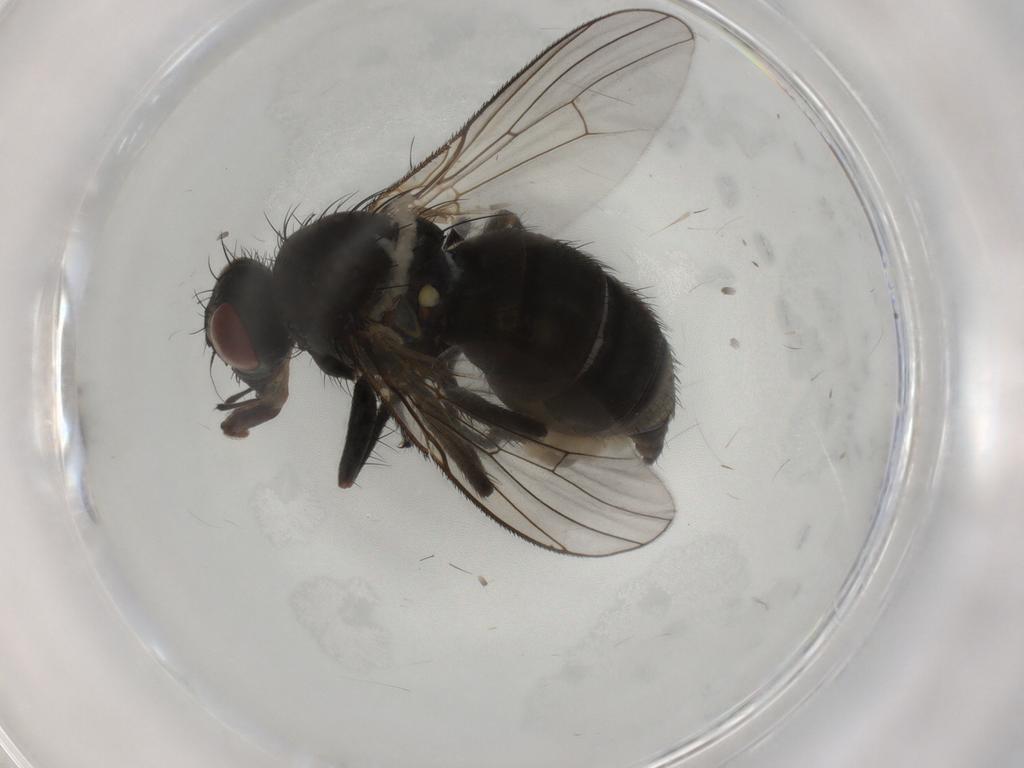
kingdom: Animalia
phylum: Arthropoda
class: Insecta
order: Diptera
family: Muscidae
